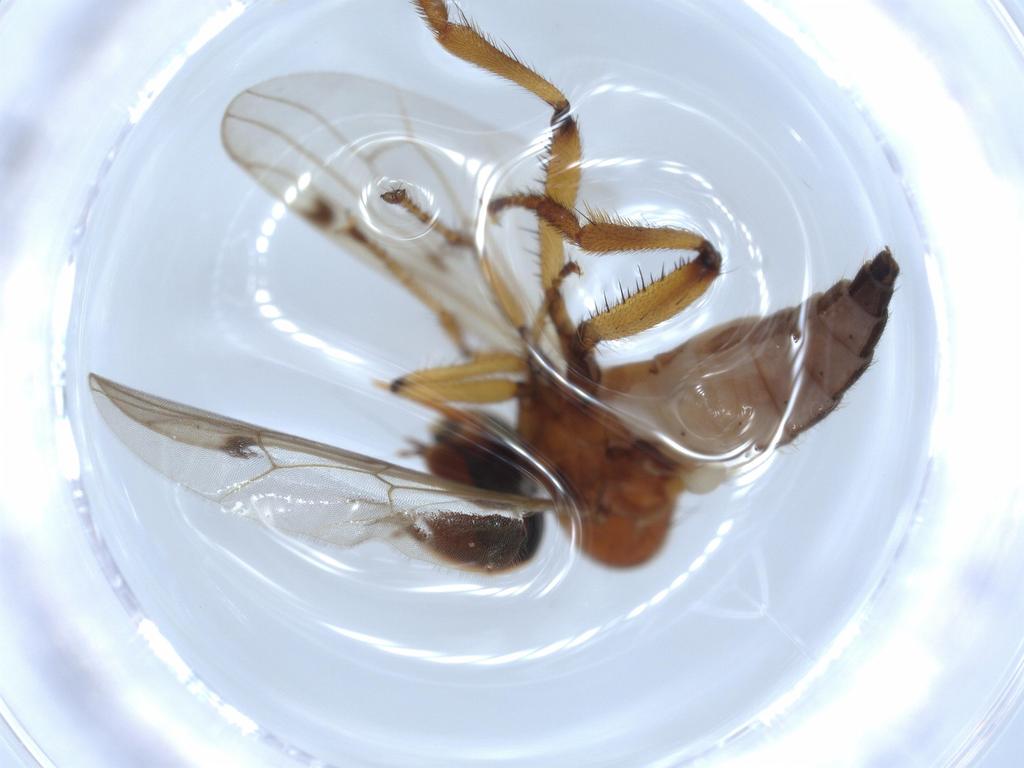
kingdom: Animalia
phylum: Arthropoda
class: Insecta
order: Diptera
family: Hybotidae
